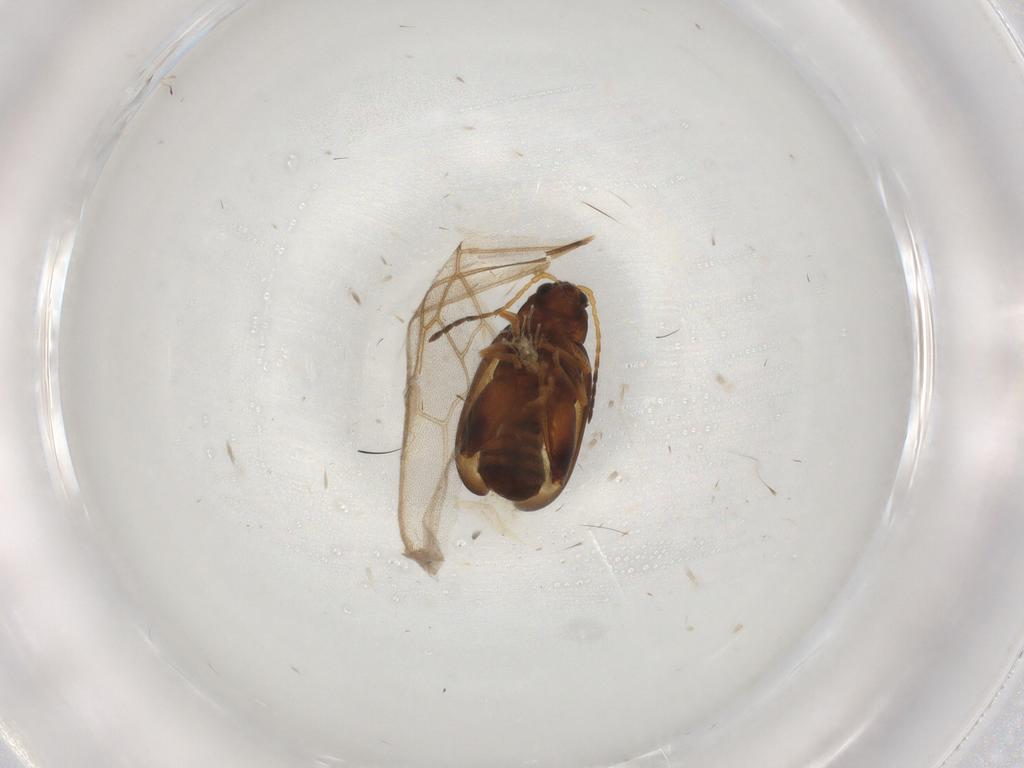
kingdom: Animalia
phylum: Arthropoda
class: Insecta
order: Coleoptera
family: Chrysomelidae
